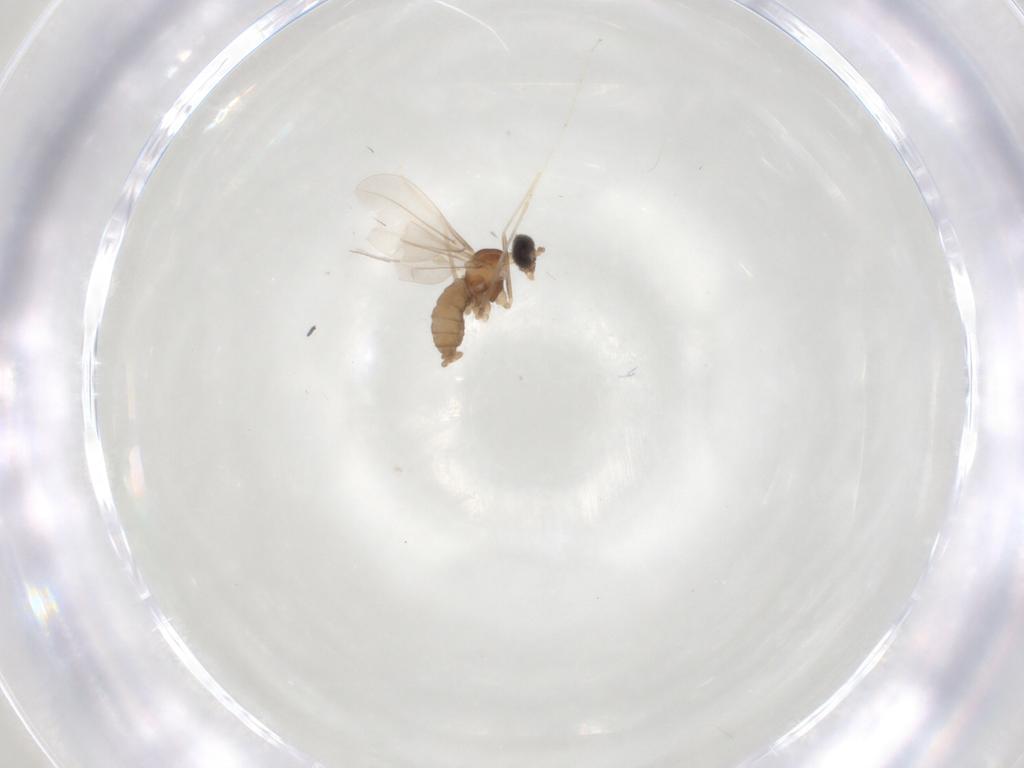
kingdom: Animalia
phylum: Arthropoda
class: Insecta
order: Diptera
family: Cecidomyiidae
